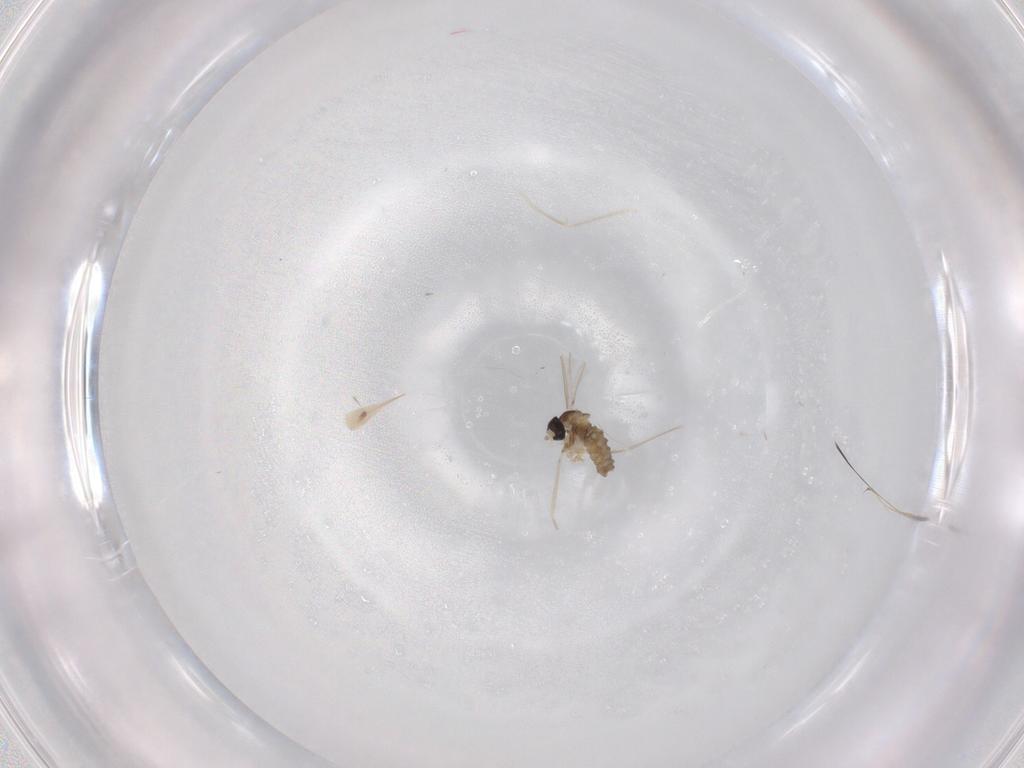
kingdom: Animalia
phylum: Arthropoda
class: Insecta
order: Diptera
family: Cecidomyiidae
